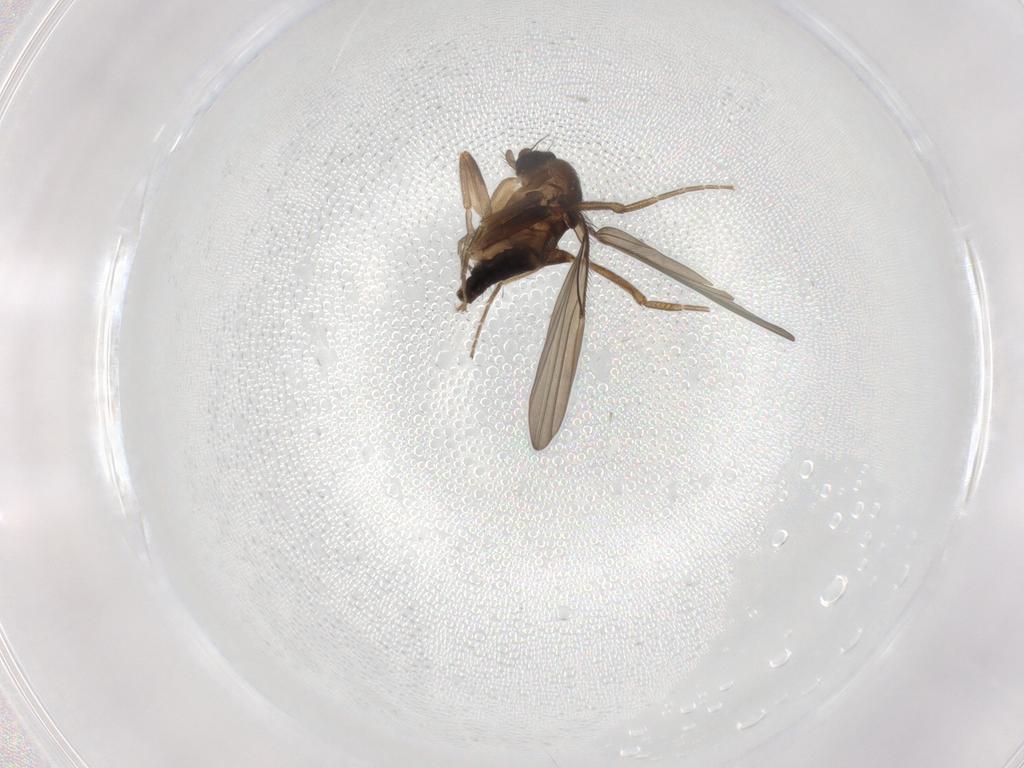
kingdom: Animalia
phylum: Arthropoda
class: Insecta
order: Diptera
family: Phoridae
